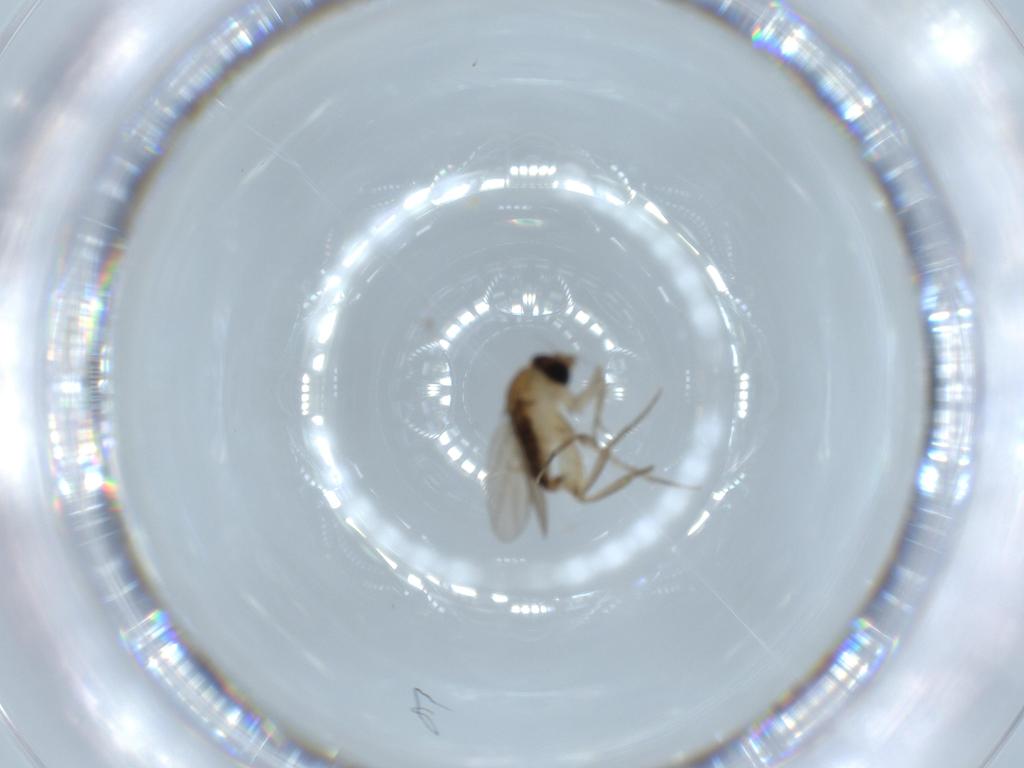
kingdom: Animalia
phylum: Arthropoda
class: Insecta
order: Diptera
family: Phoridae
